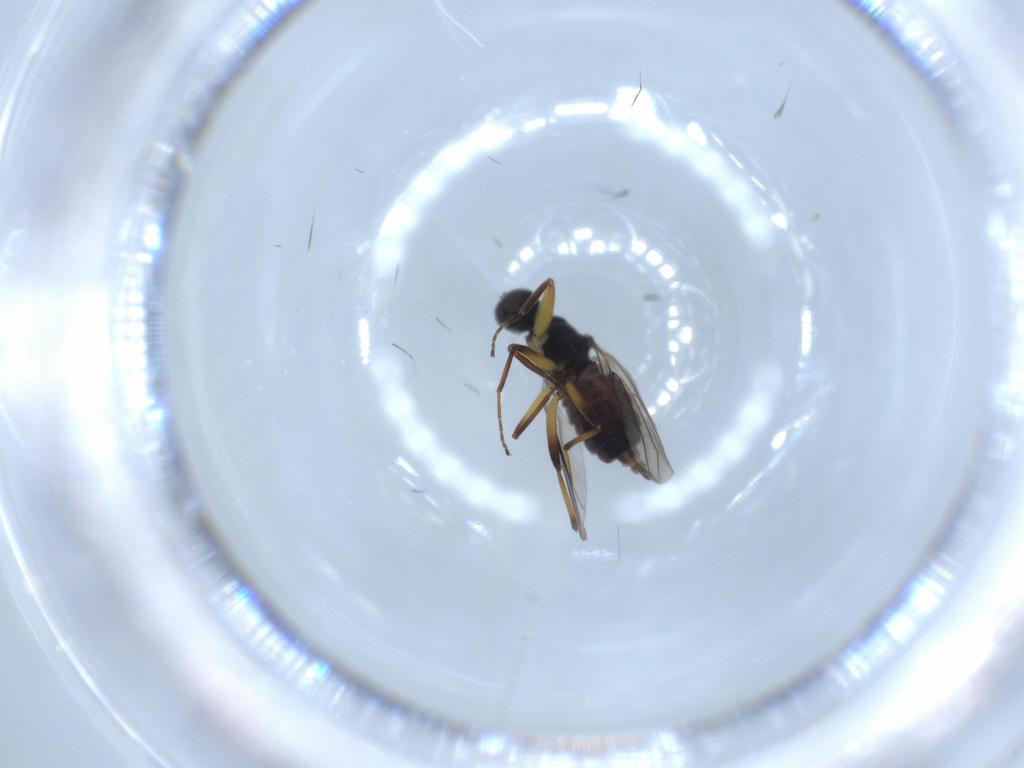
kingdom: Animalia
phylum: Arthropoda
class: Insecta
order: Diptera
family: Hybotidae
